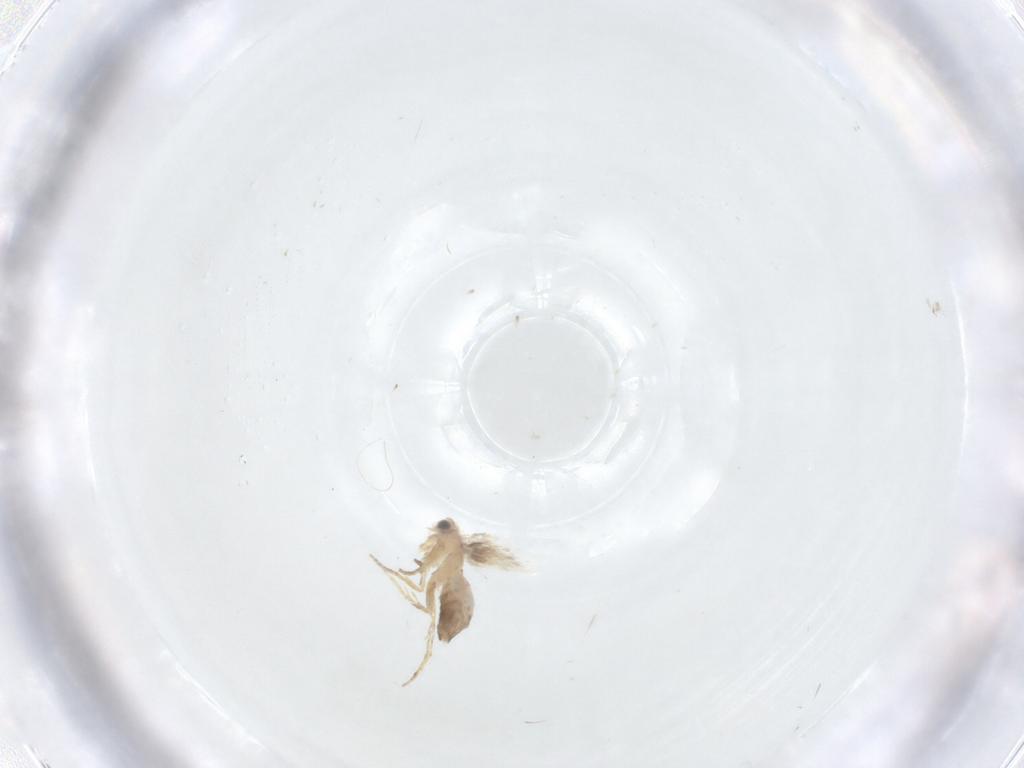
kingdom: Animalia
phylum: Arthropoda
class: Insecta
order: Lepidoptera
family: Nepticulidae
